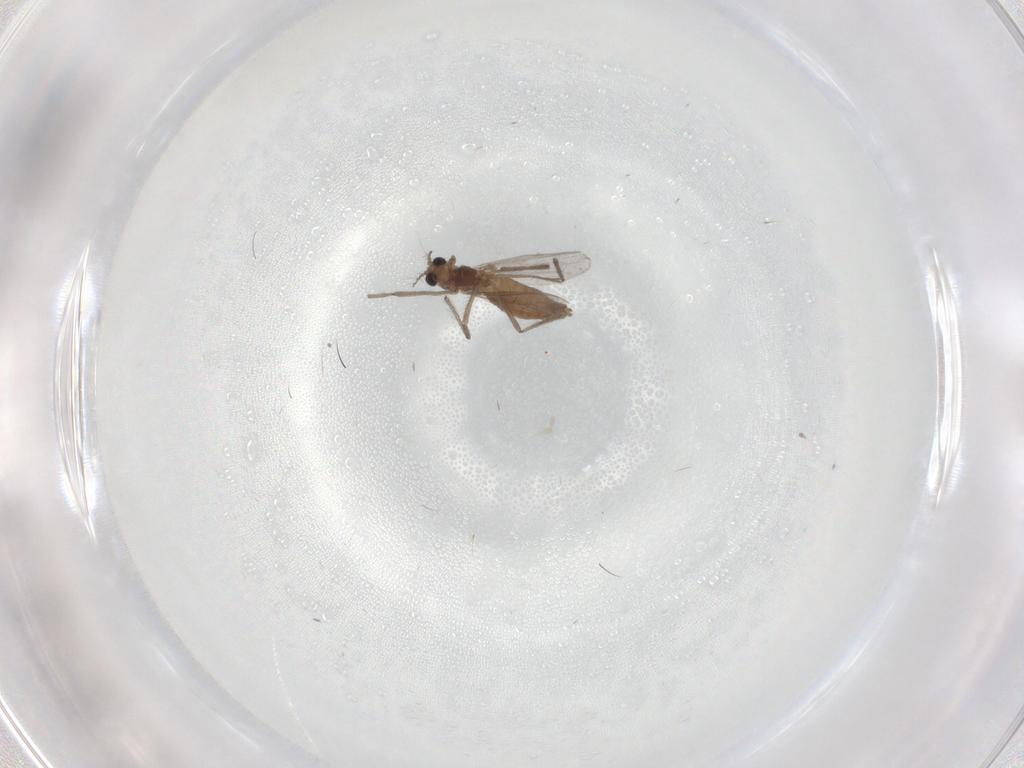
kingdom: Animalia
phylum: Arthropoda
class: Insecta
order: Diptera
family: Chironomidae
